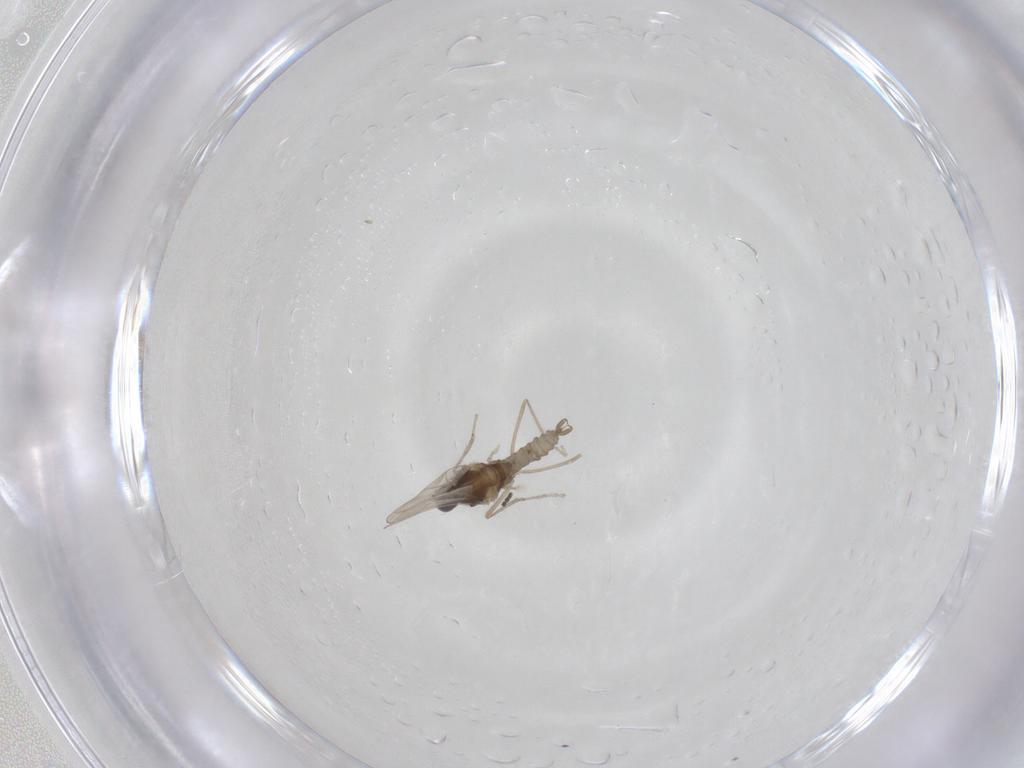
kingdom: Animalia
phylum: Arthropoda
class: Insecta
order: Diptera
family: Cecidomyiidae
